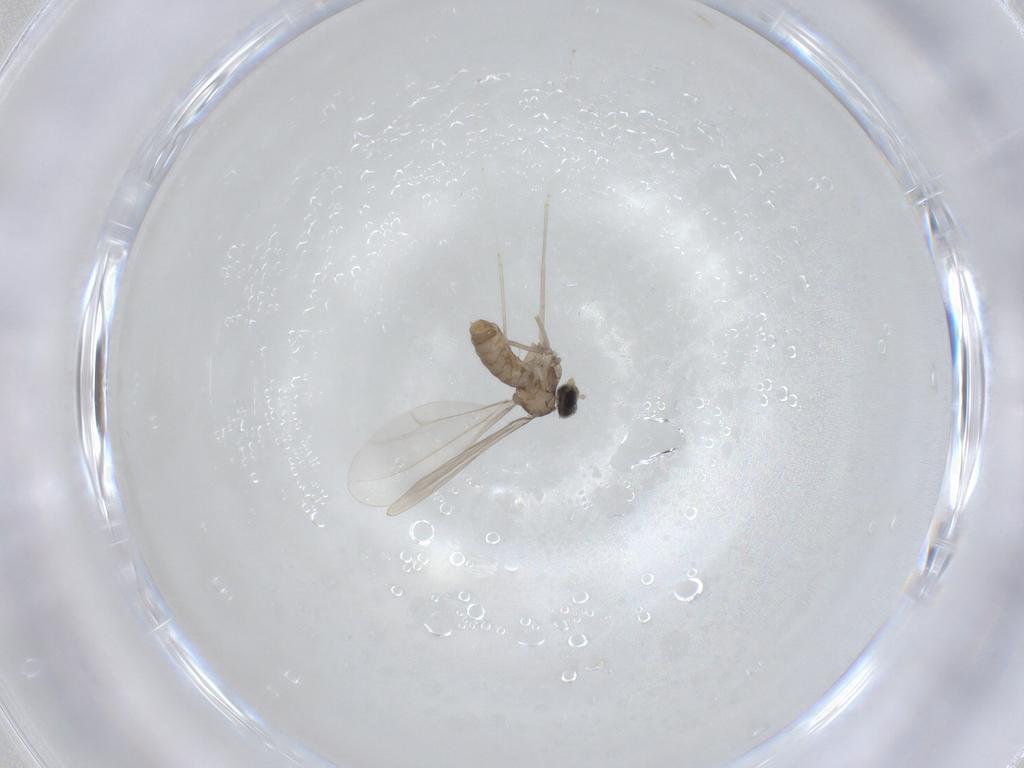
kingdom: Animalia
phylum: Arthropoda
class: Insecta
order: Diptera
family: Cecidomyiidae
